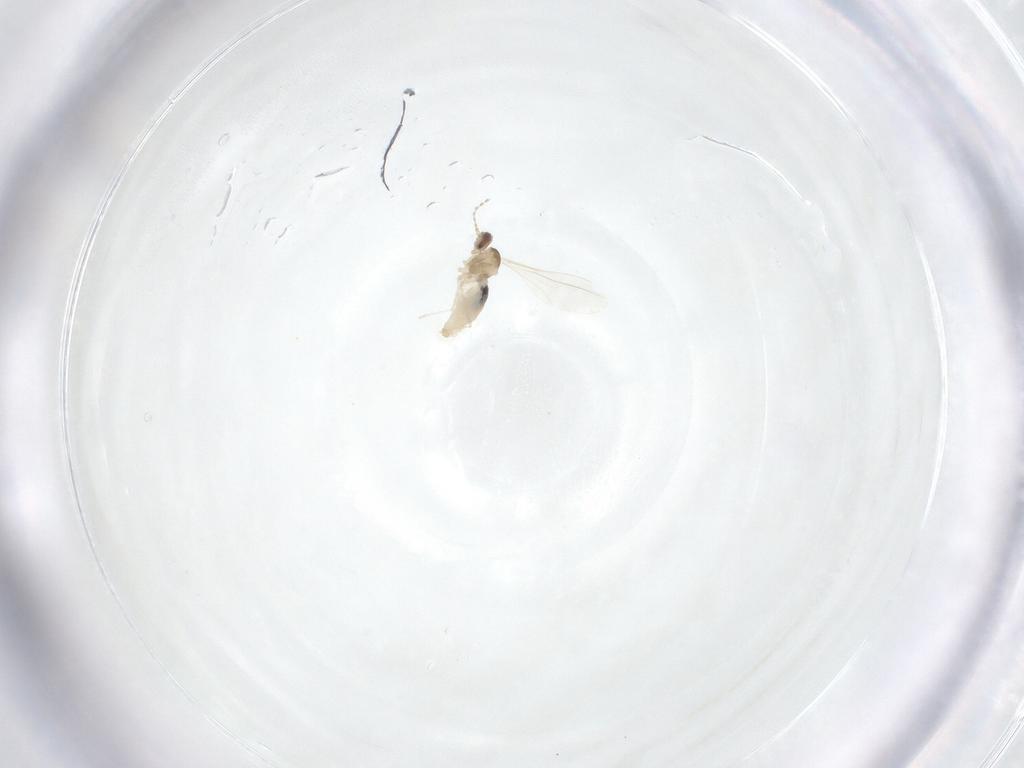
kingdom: Animalia
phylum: Arthropoda
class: Insecta
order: Diptera
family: Cecidomyiidae
